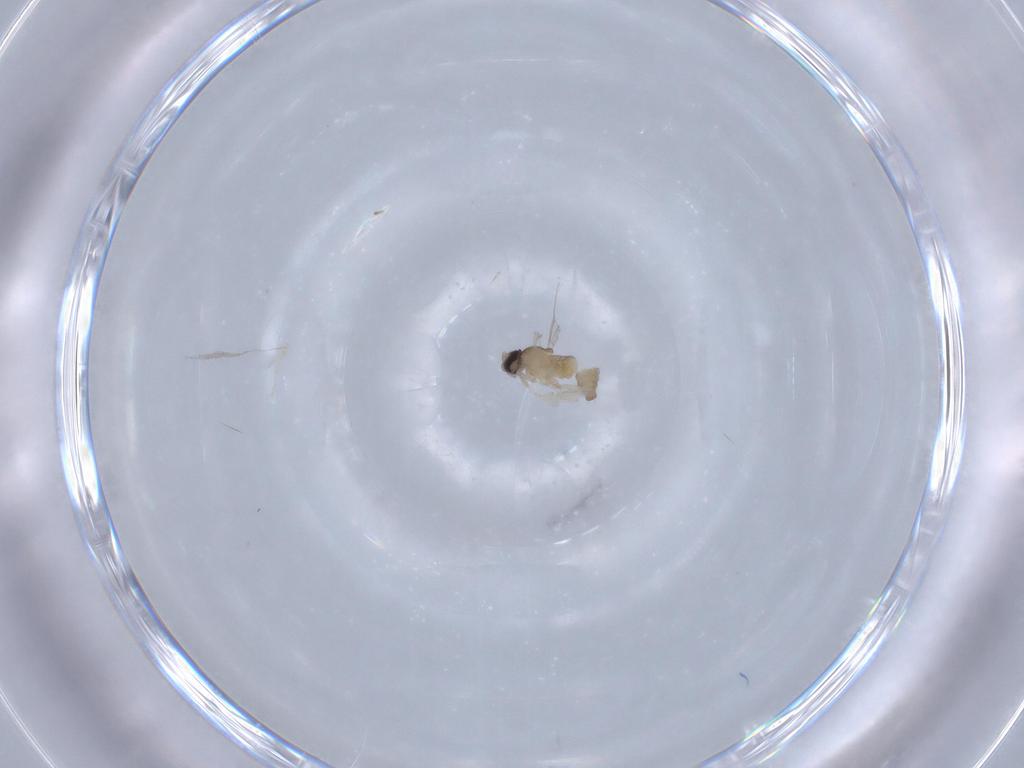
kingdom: Animalia
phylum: Arthropoda
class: Insecta
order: Diptera
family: Cecidomyiidae
